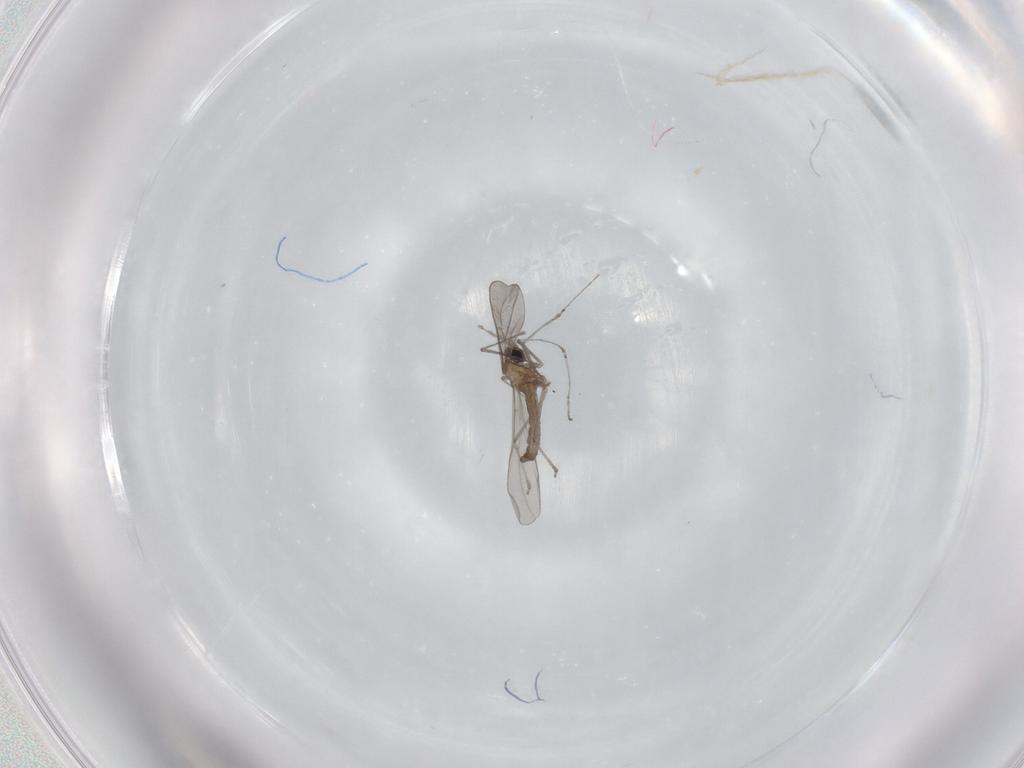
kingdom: Animalia
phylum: Arthropoda
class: Insecta
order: Diptera
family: Cecidomyiidae
